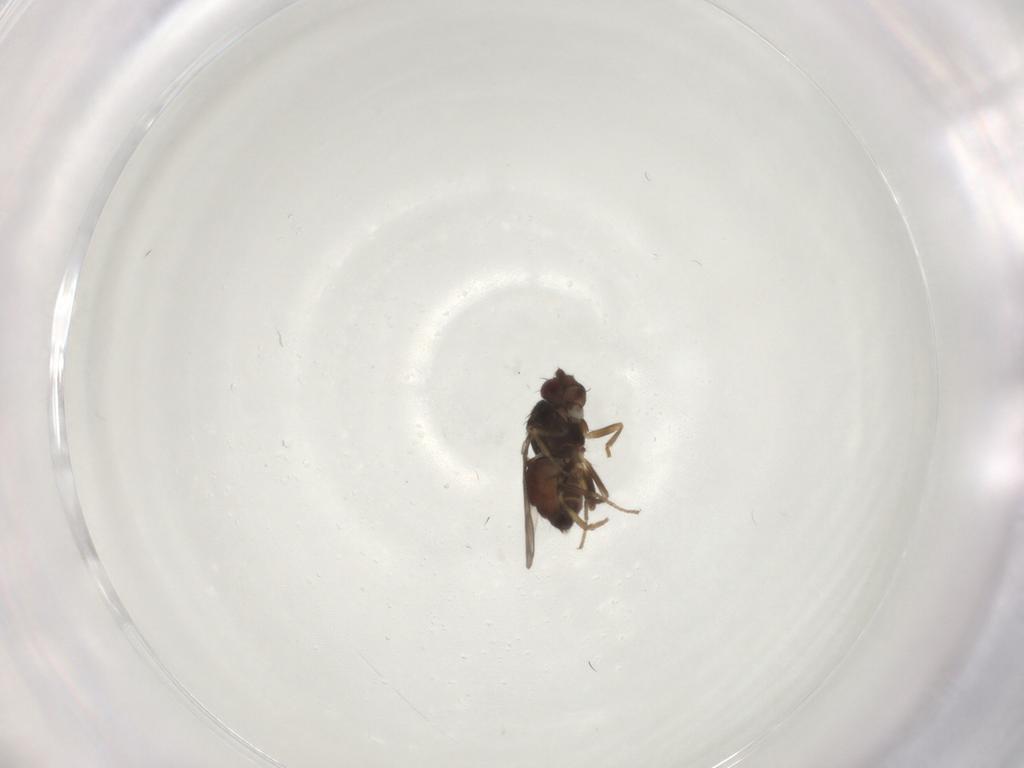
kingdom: Animalia
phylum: Arthropoda
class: Insecta
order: Diptera
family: Sphaeroceridae
